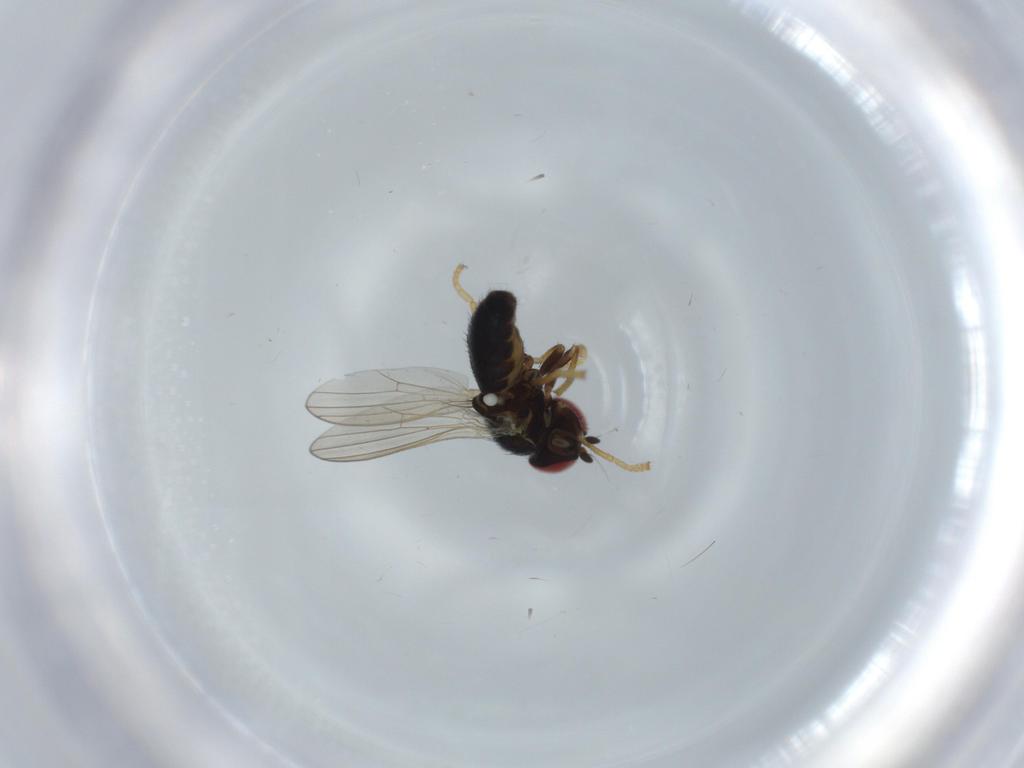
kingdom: Animalia
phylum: Arthropoda
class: Insecta
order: Diptera
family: Chamaemyiidae
